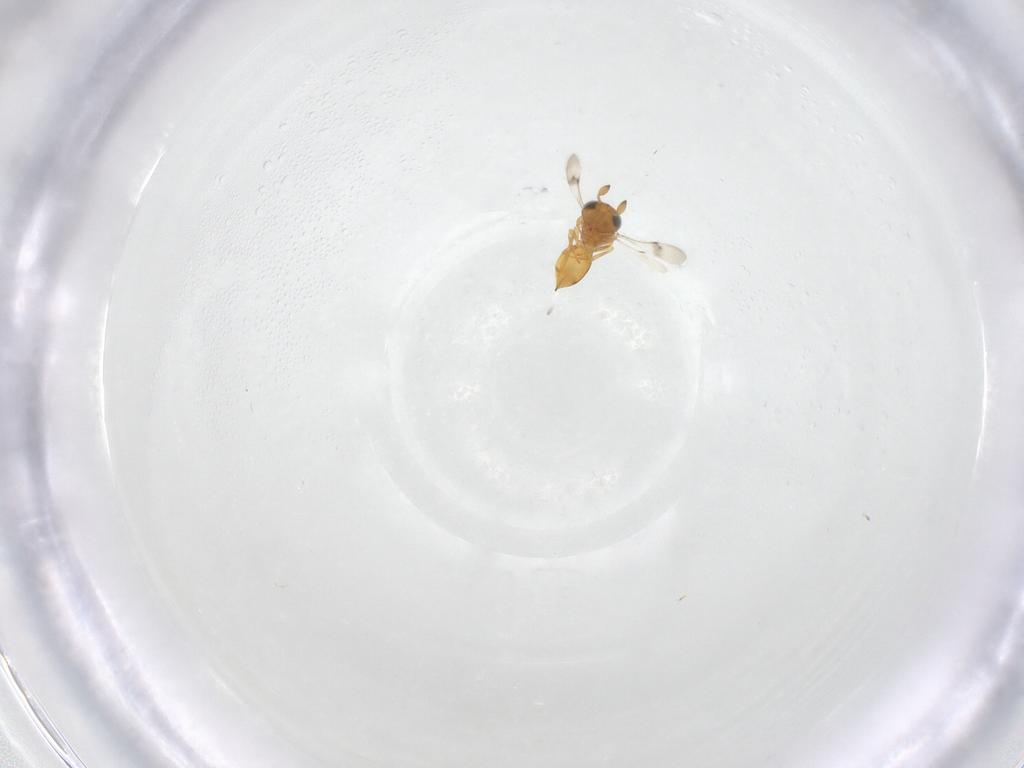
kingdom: Animalia
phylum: Arthropoda
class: Insecta
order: Hymenoptera
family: Scelionidae
